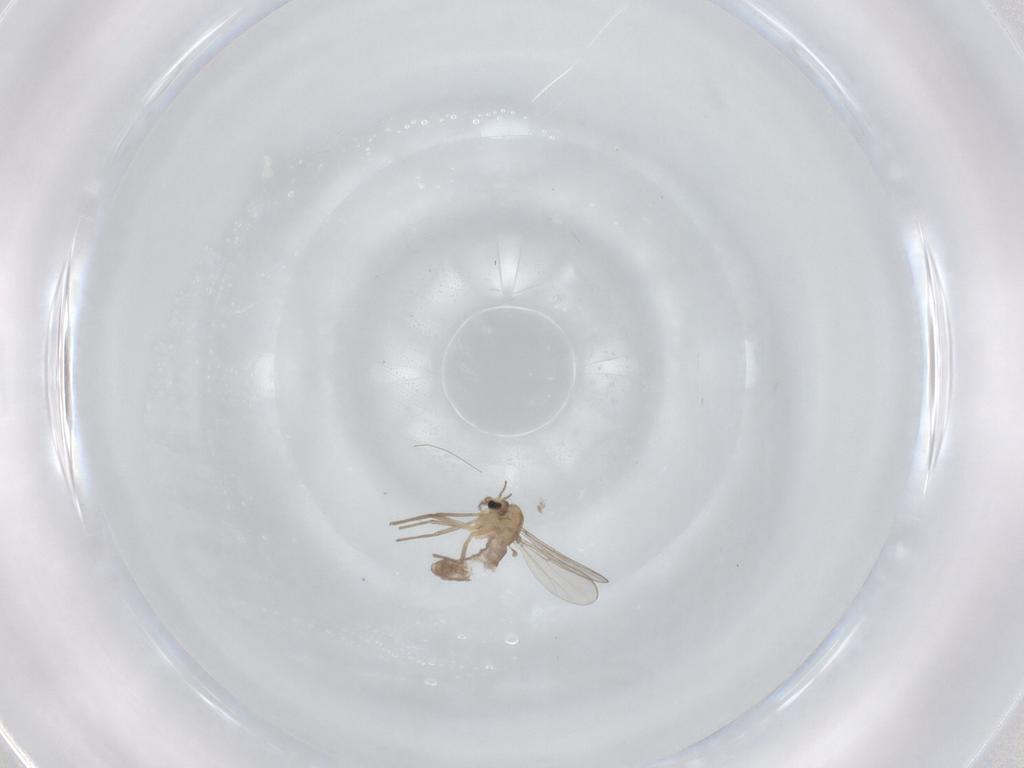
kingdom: Animalia
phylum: Arthropoda
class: Insecta
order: Diptera
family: Chironomidae
